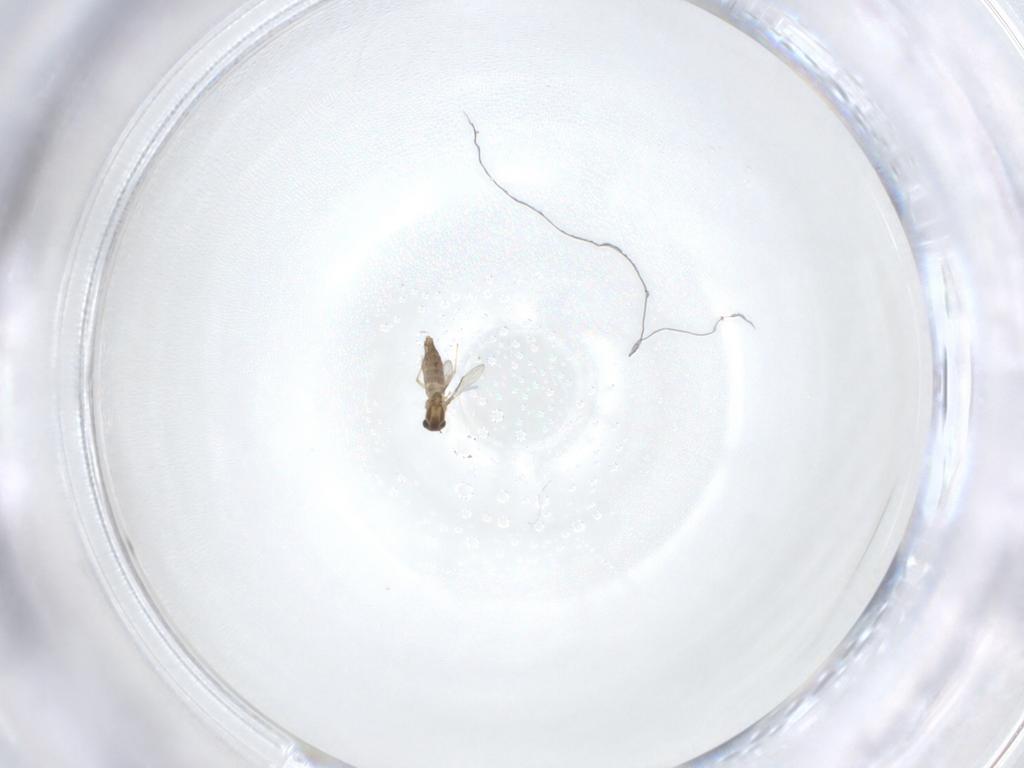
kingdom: Animalia
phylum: Arthropoda
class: Insecta
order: Diptera
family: Chironomidae
